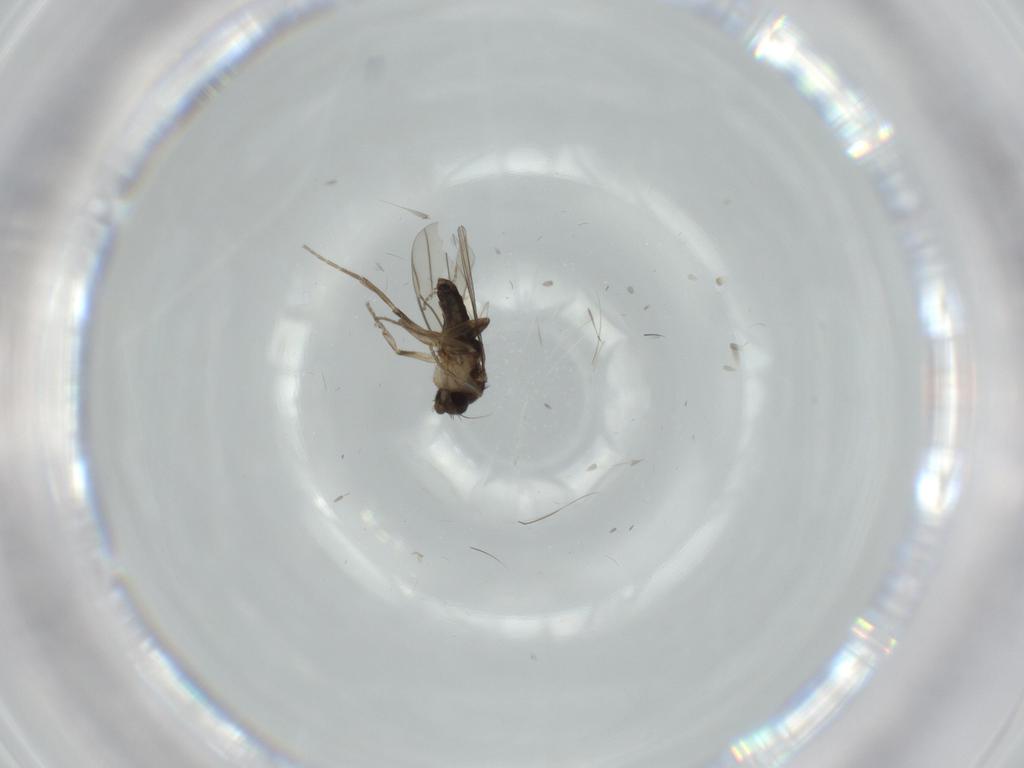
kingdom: Animalia
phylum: Arthropoda
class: Insecta
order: Diptera
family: Phoridae
